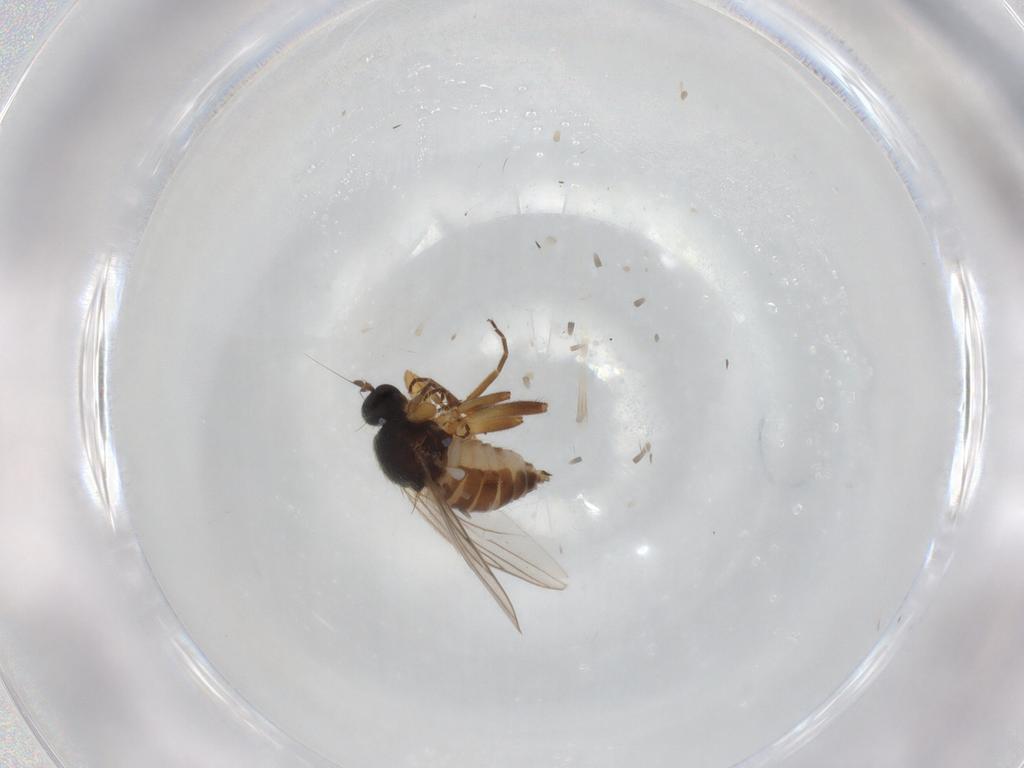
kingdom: Animalia
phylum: Arthropoda
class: Insecta
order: Diptera
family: Hybotidae
